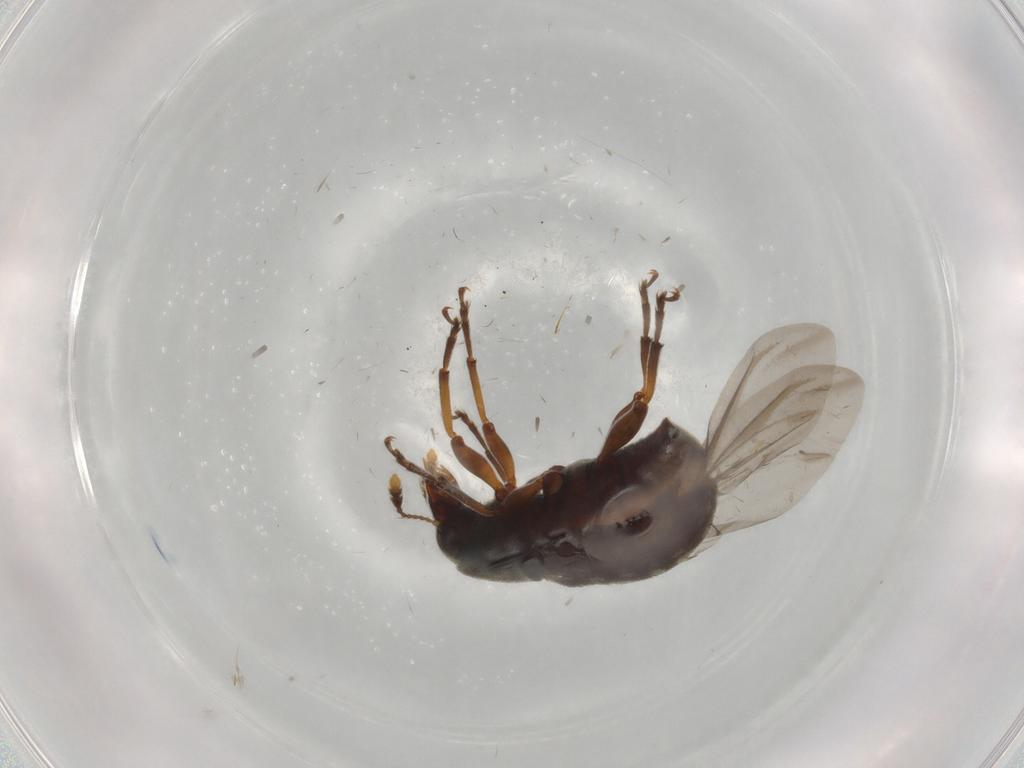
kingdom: Animalia
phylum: Arthropoda
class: Insecta
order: Coleoptera
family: Anthribidae
